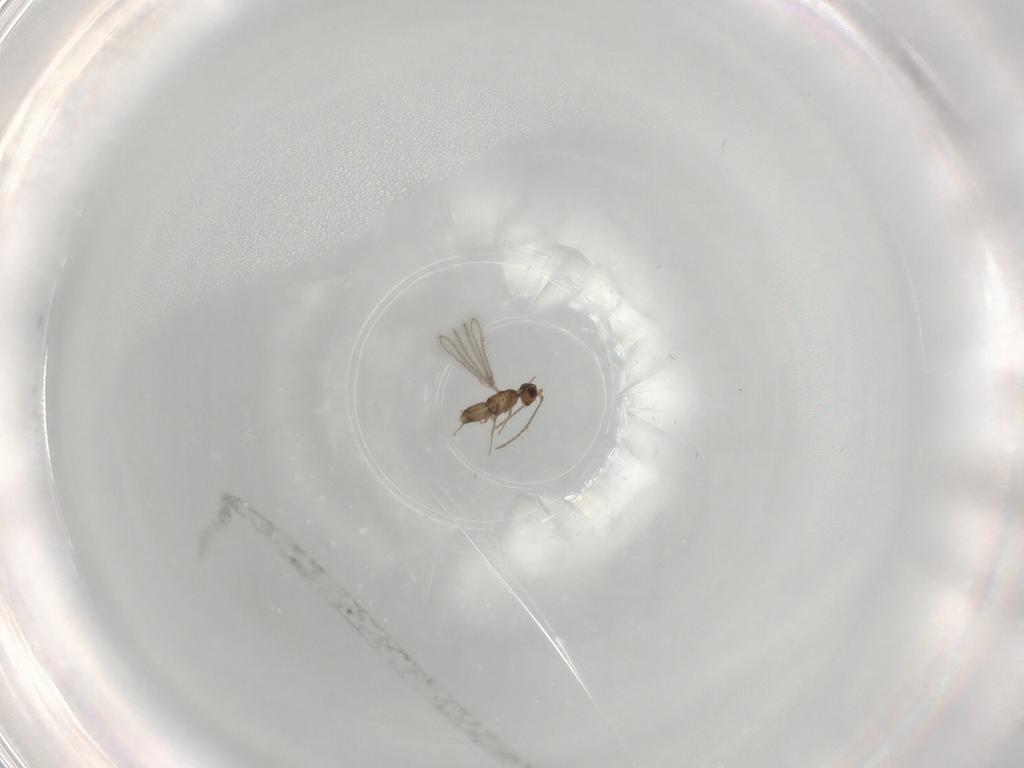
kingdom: Animalia
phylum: Arthropoda
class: Insecta
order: Hymenoptera
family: Mymaridae
